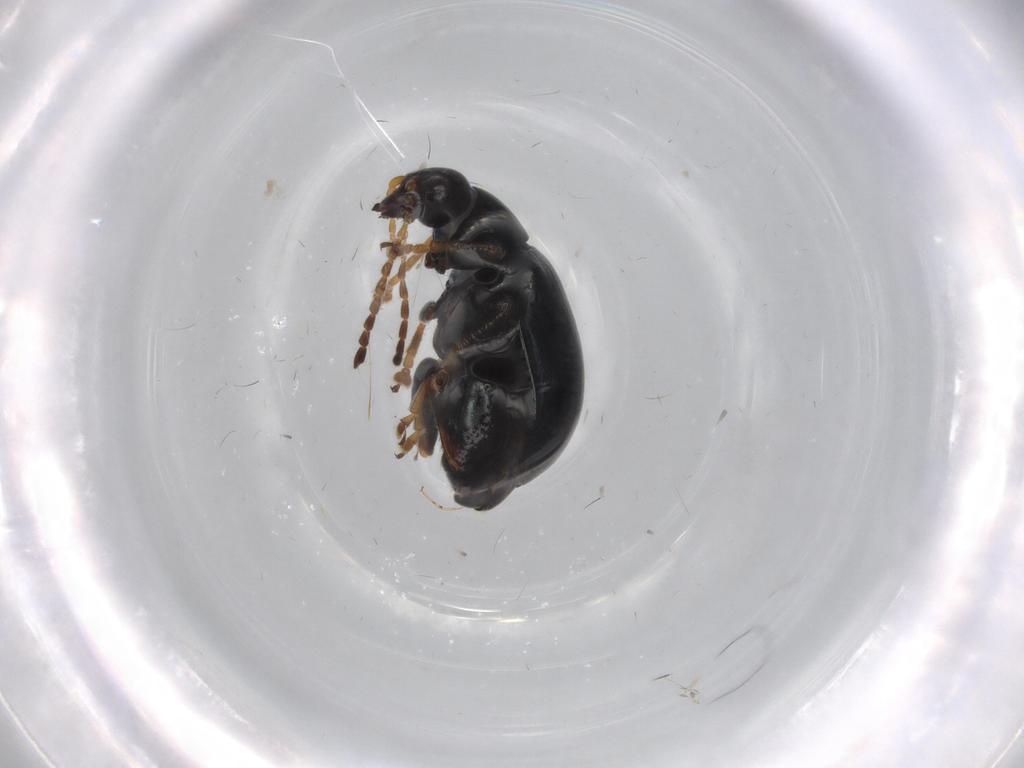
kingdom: Animalia
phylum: Arthropoda
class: Insecta
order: Coleoptera
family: Chrysomelidae
